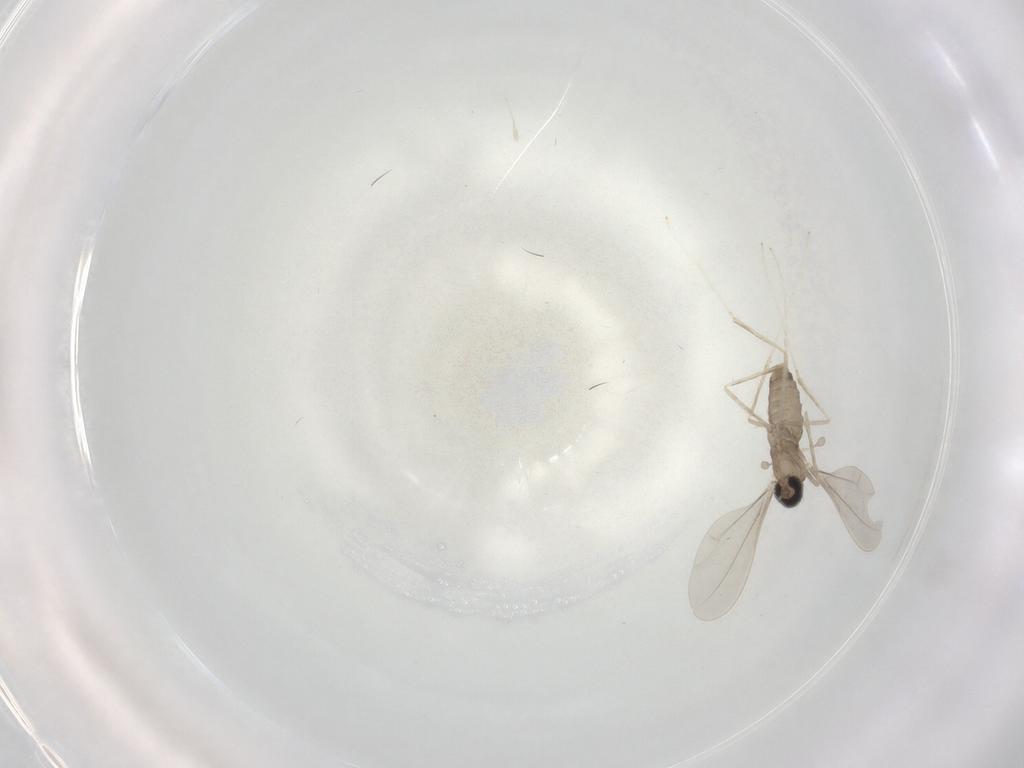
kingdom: Animalia
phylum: Arthropoda
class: Insecta
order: Diptera
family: Cecidomyiidae
